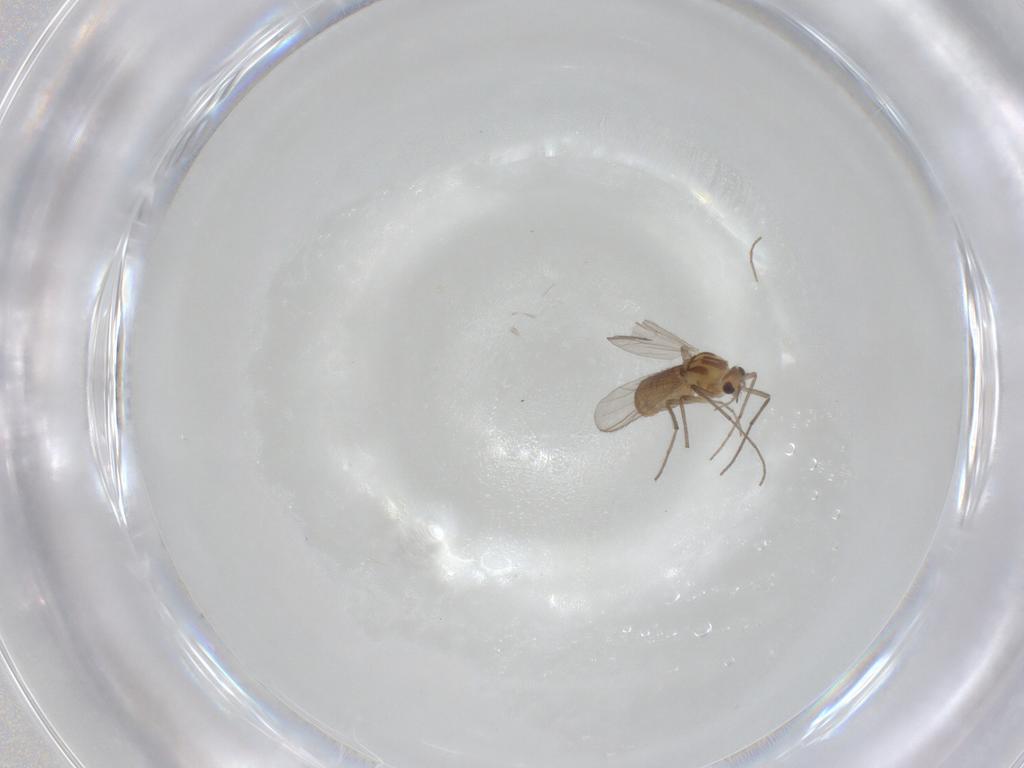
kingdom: Animalia
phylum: Arthropoda
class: Insecta
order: Diptera
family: Chironomidae
